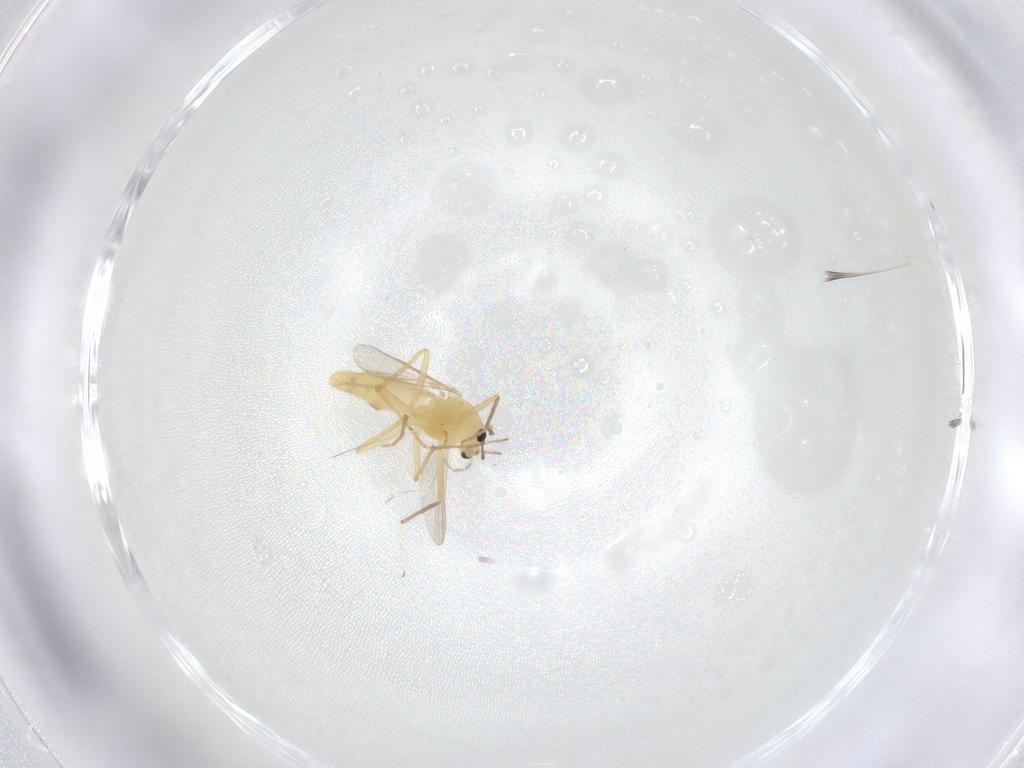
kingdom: Animalia
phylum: Arthropoda
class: Insecta
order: Diptera
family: Chironomidae
